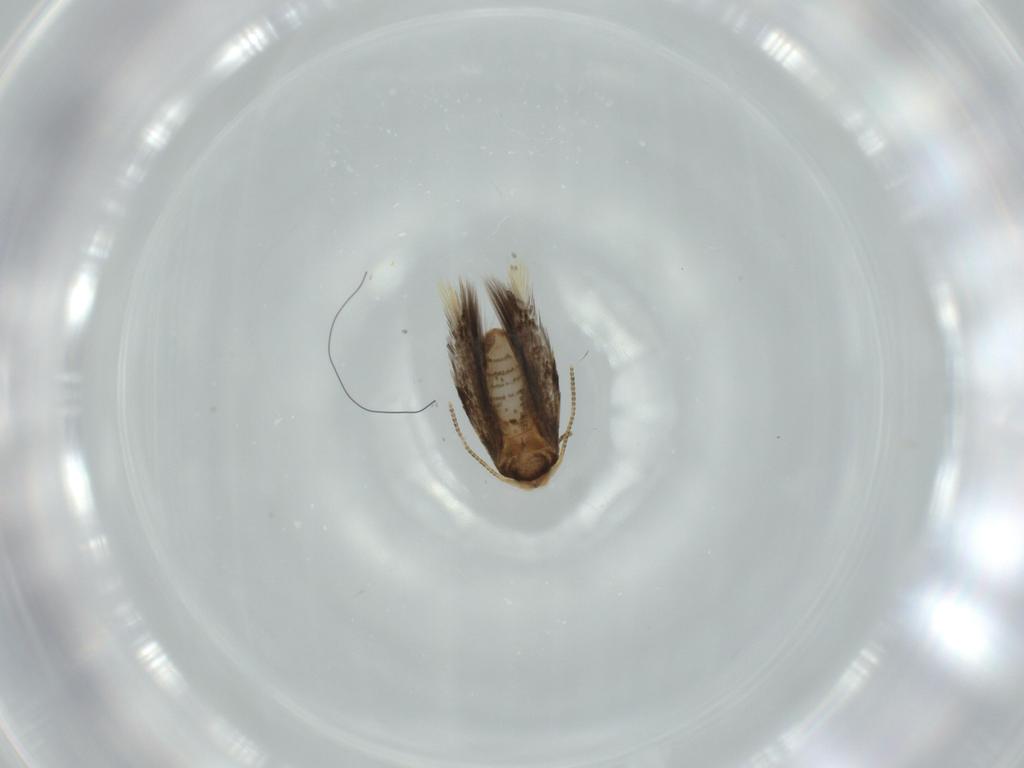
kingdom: Animalia
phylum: Arthropoda
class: Insecta
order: Lepidoptera
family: Nepticulidae
